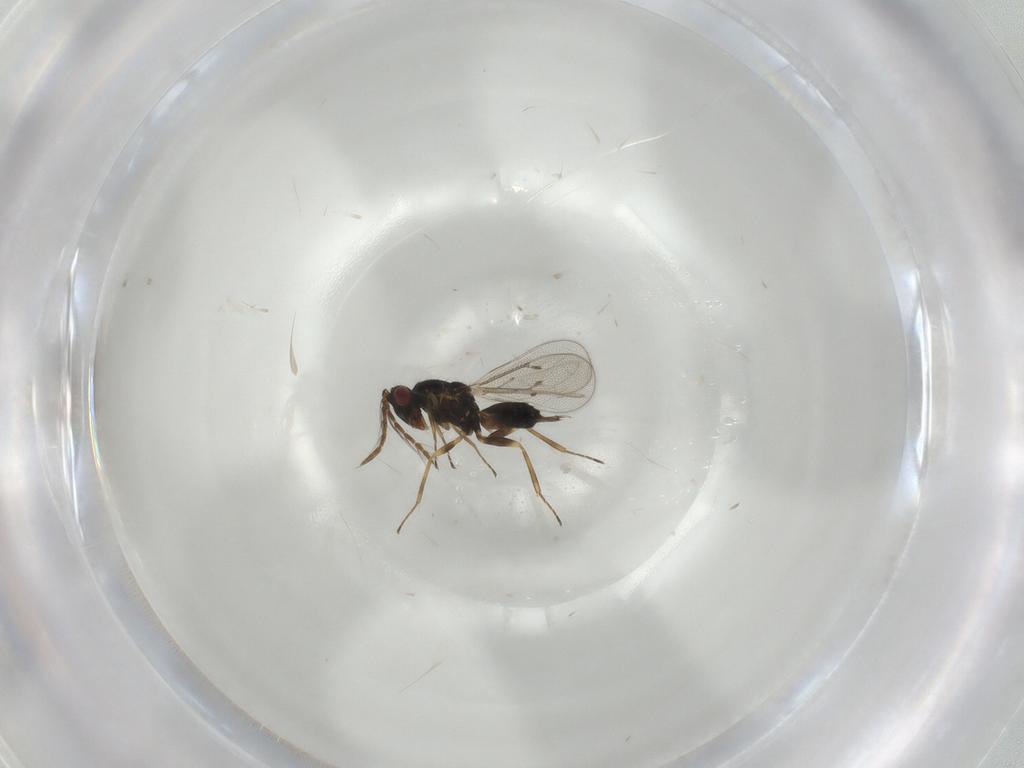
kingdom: Animalia
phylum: Arthropoda
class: Insecta
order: Hymenoptera
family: Eulophidae
